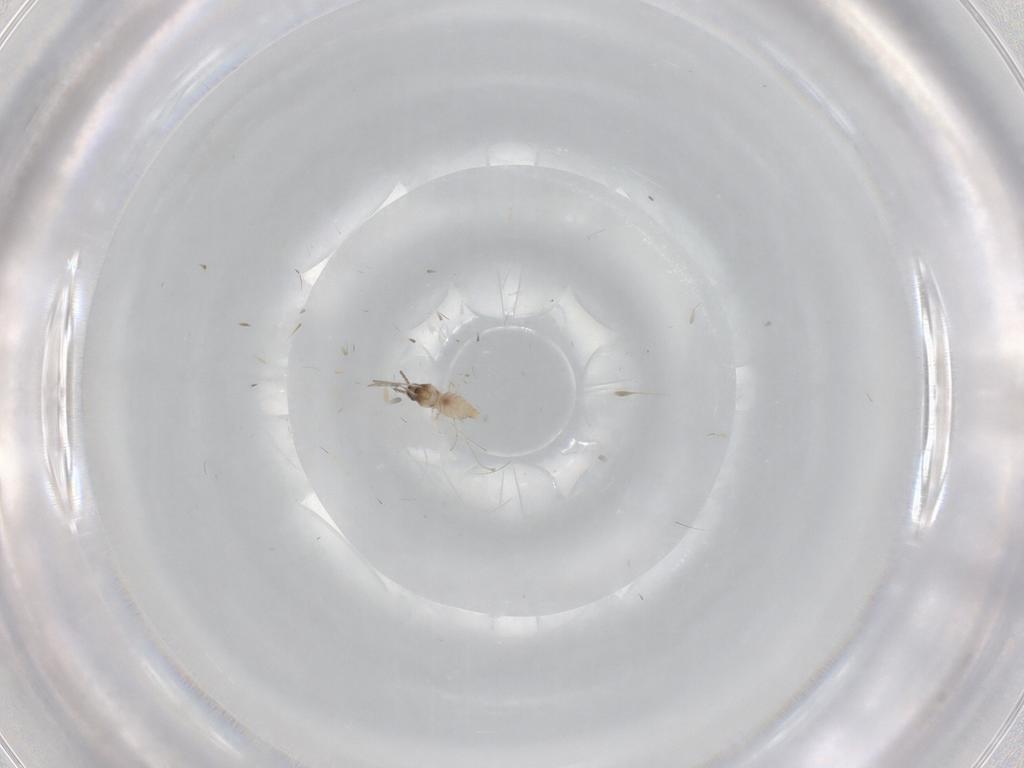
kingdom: Animalia
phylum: Arthropoda
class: Insecta
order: Diptera
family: Cecidomyiidae
